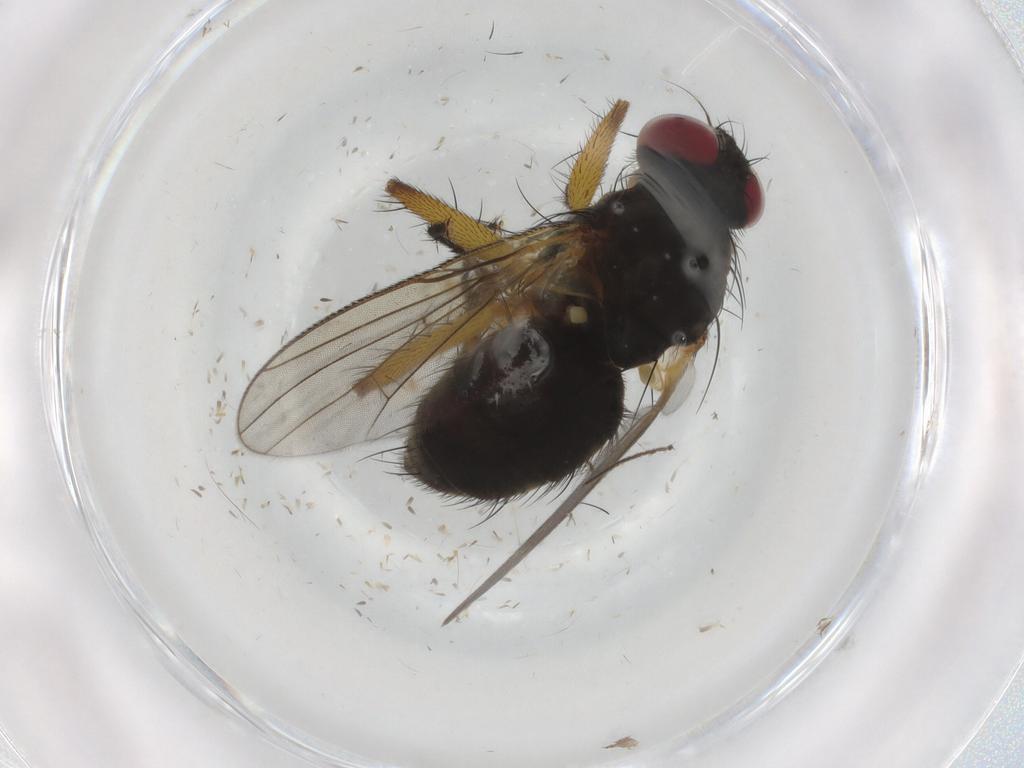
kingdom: Animalia
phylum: Arthropoda
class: Insecta
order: Diptera
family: Muscidae
